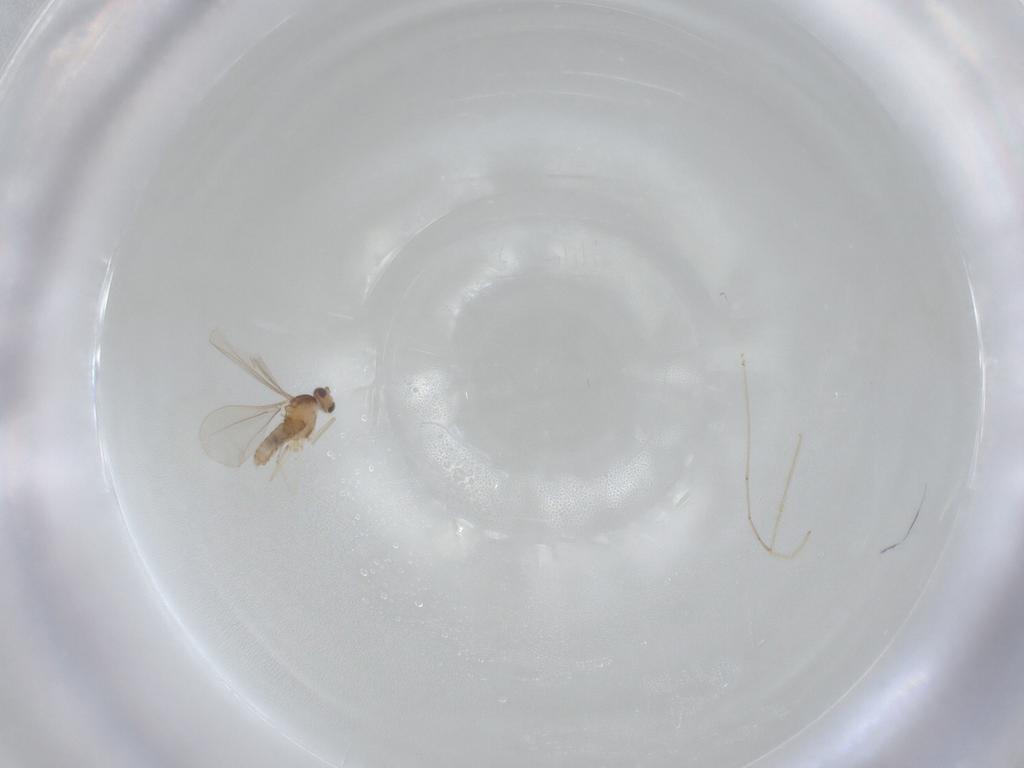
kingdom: Animalia
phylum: Arthropoda
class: Insecta
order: Diptera
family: Cecidomyiidae
